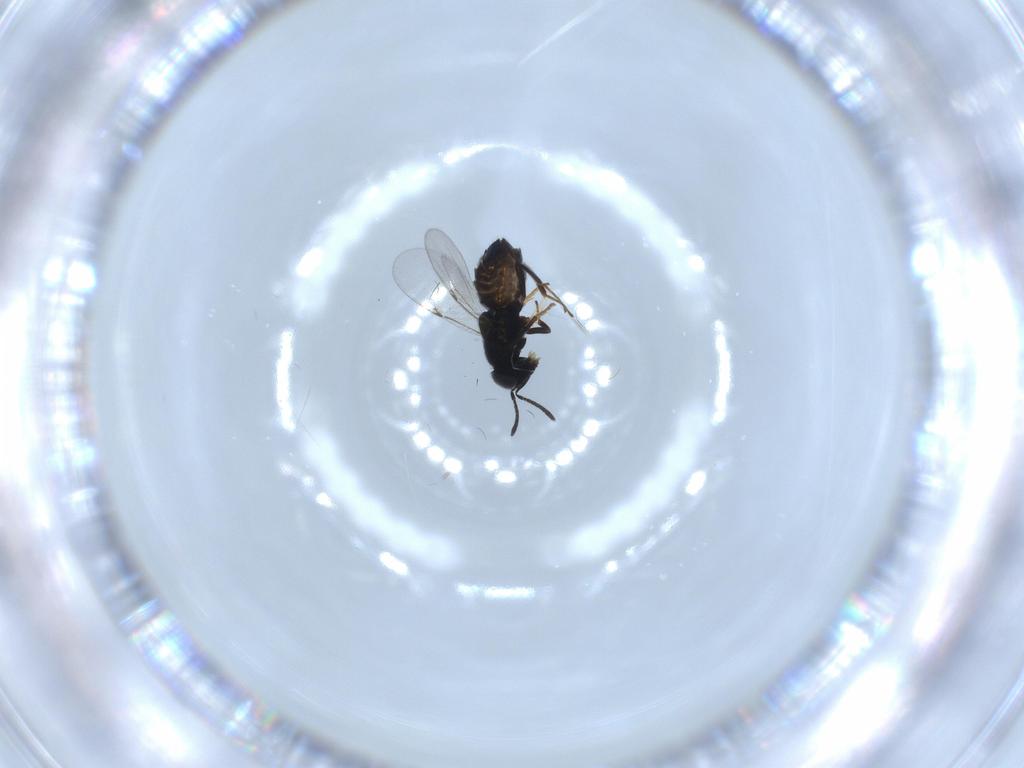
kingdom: Animalia
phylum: Arthropoda
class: Insecta
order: Hymenoptera
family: Encyrtidae
